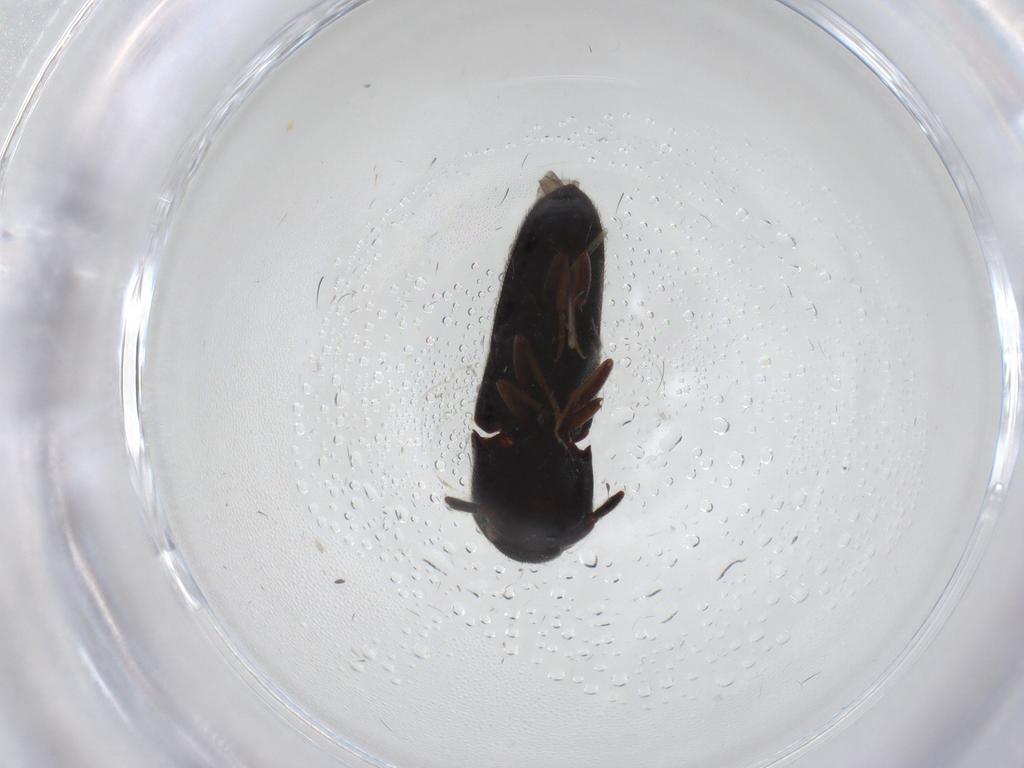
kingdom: Animalia
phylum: Arthropoda
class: Insecta
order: Coleoptera
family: Eucnemidae
